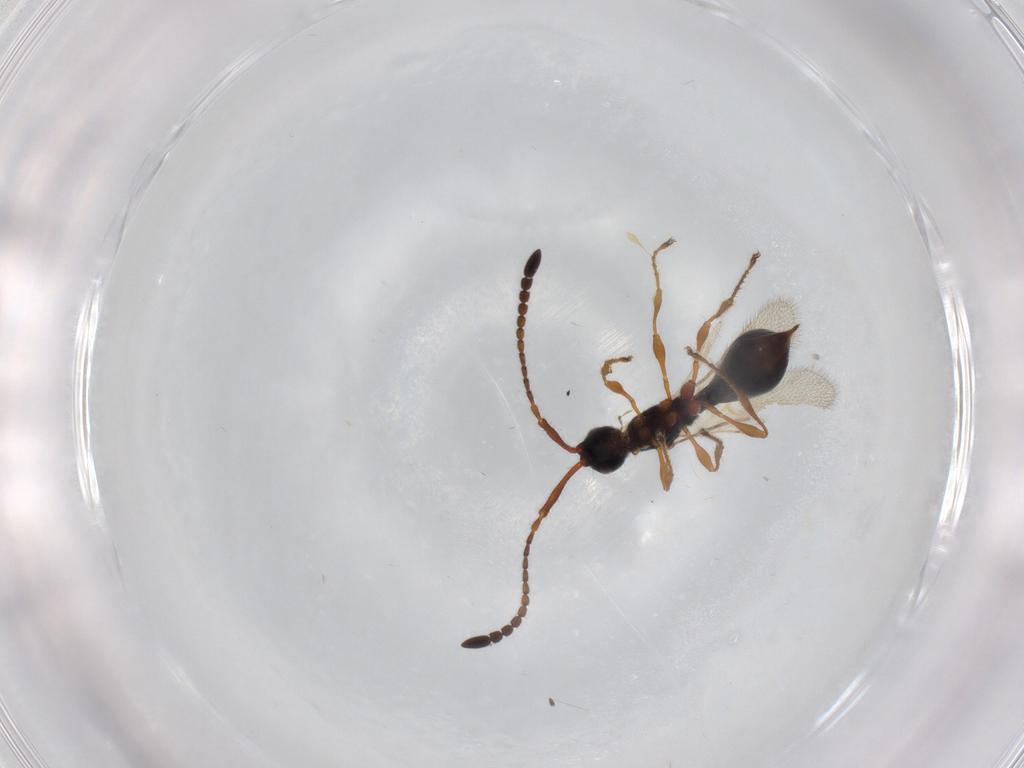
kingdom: Animalia
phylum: Arthropoda
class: Insecta
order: Hymenoptera
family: Diapriidae
